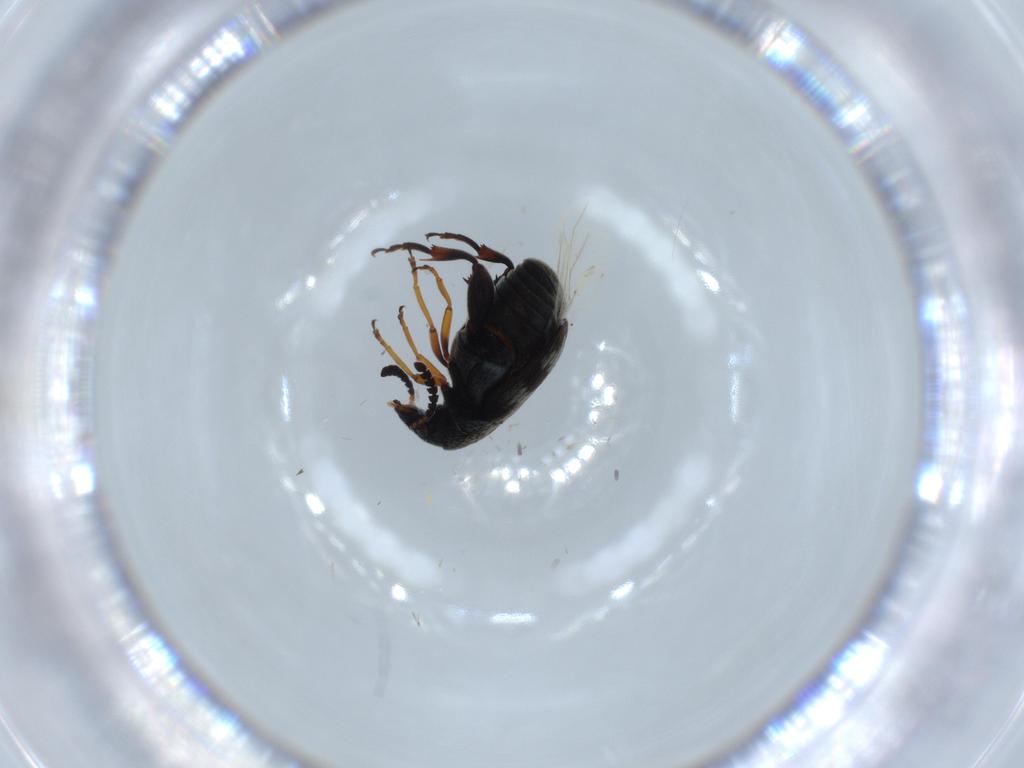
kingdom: Animalia
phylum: Arthropoda
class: Insecta
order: Coleoptera
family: Chrysomelidae
